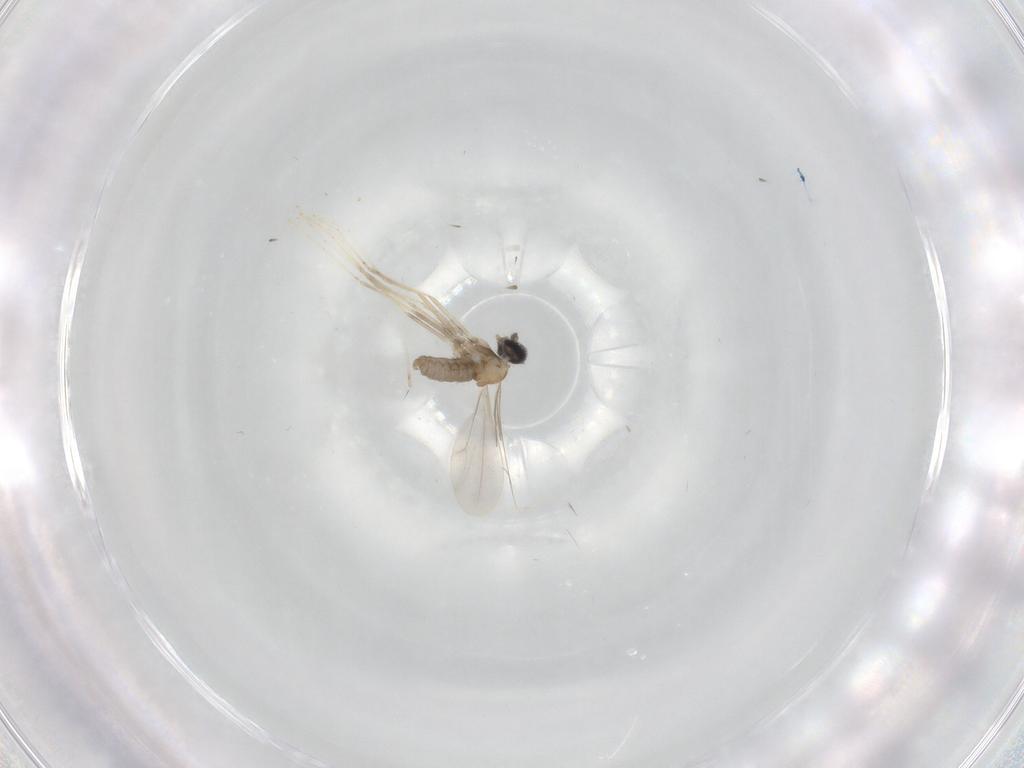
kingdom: Animalia
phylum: Arthropoda
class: Insecta
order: Diptera
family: Cecidomyiidae
